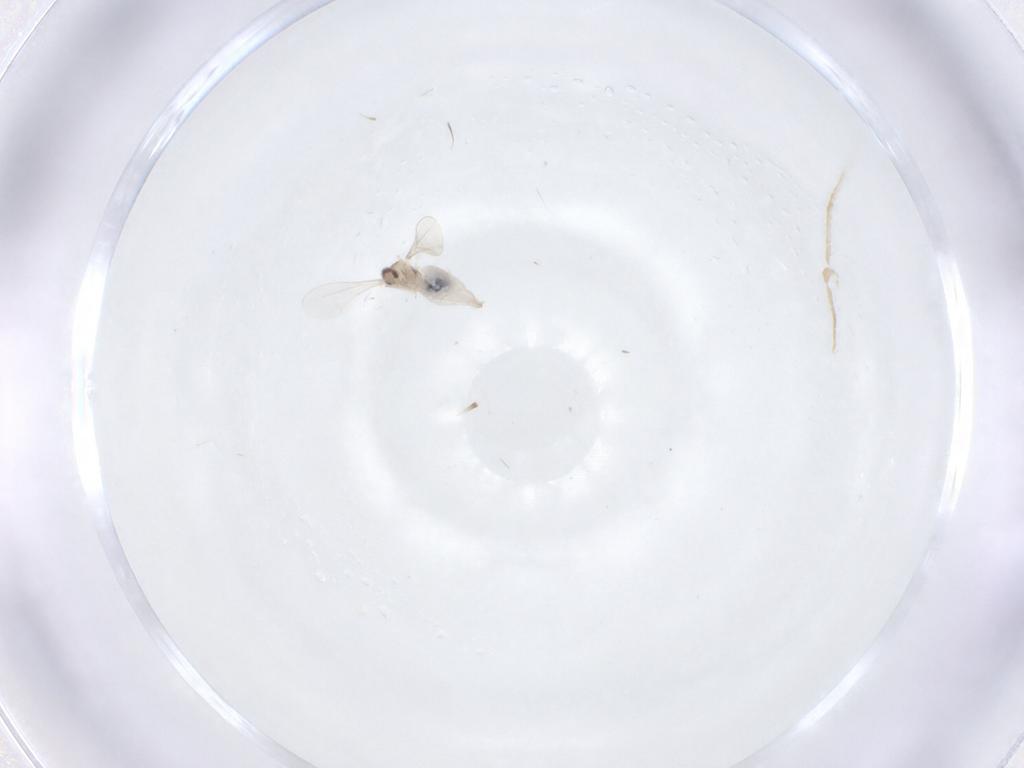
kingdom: Animalia
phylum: Arthropoda
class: Insecta
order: Diptera
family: Cecidomyiidae
